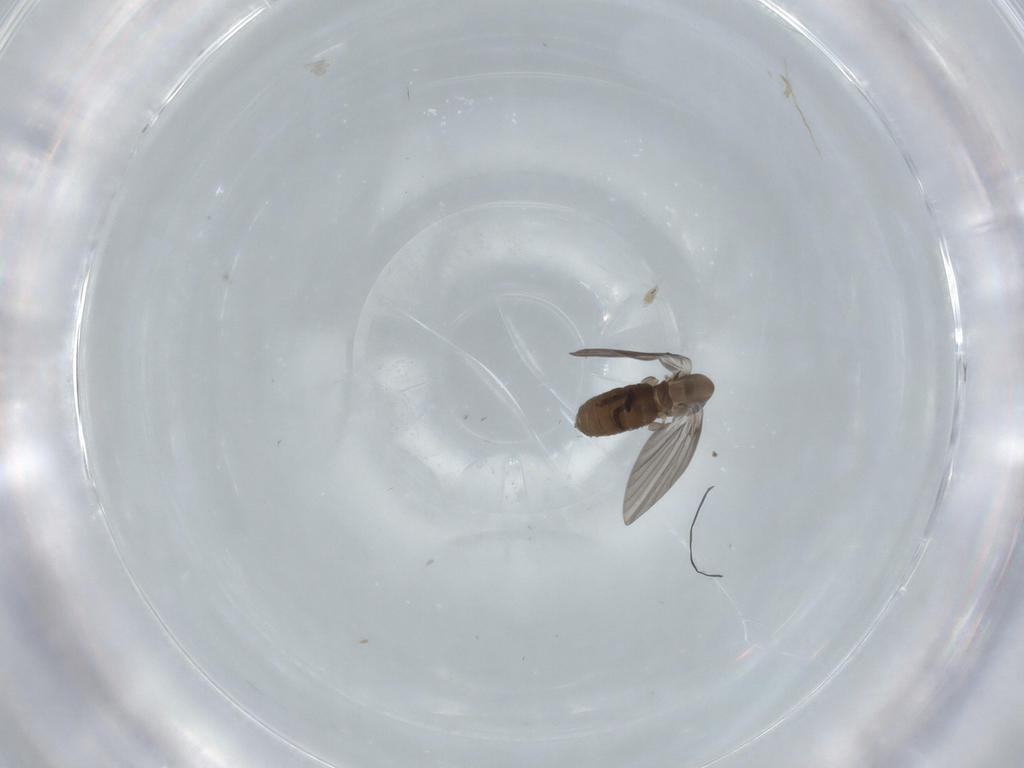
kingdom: Animalia
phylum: Arthropoda
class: Insecta
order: Diptera
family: Psychodidae
